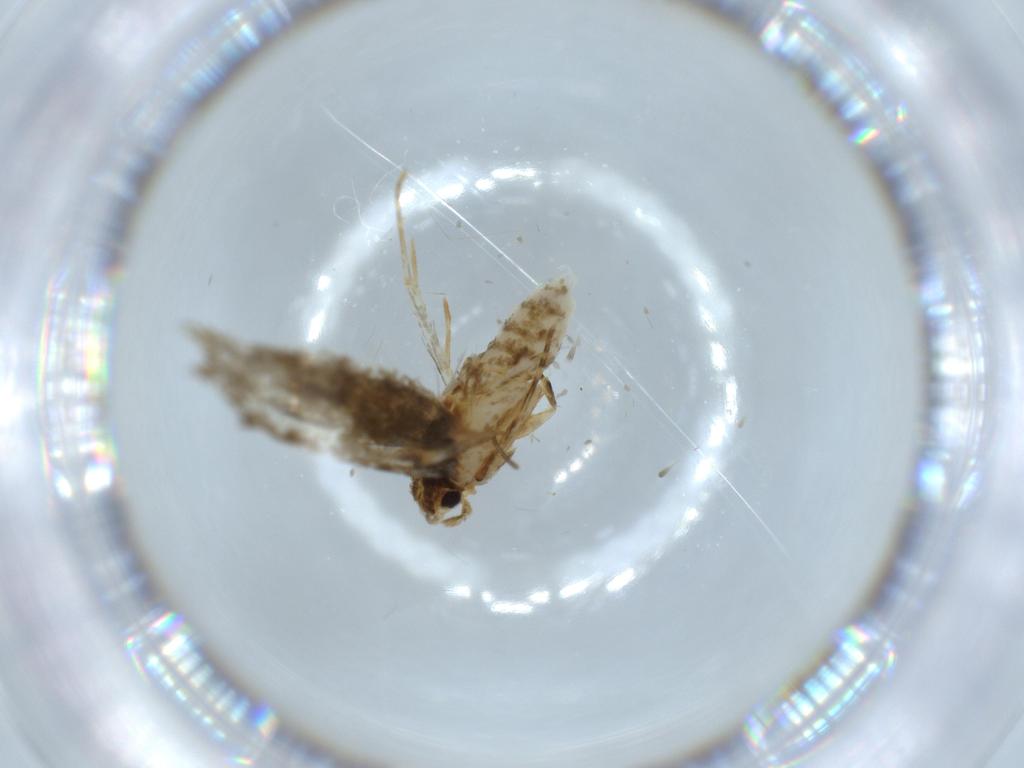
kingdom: Animalia
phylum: Arthropoda
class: Insecta
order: Lepidoptera
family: Tineidae
